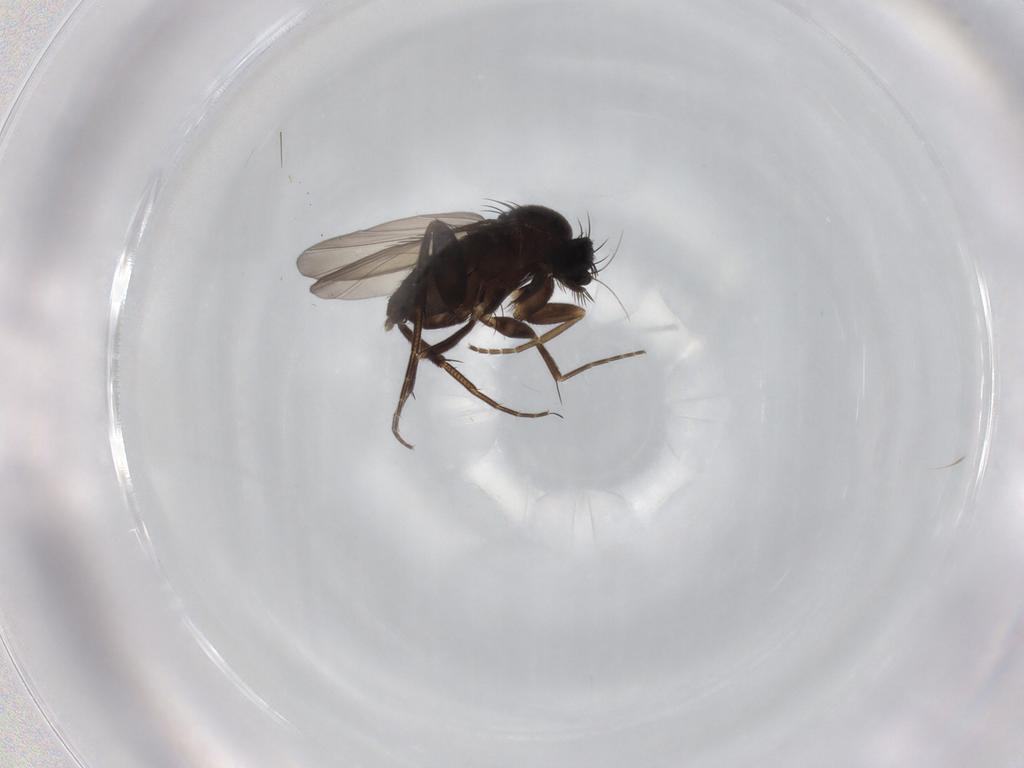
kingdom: Animalia
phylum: Arthropoda
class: Insecta
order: Diptera
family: Phoridae
